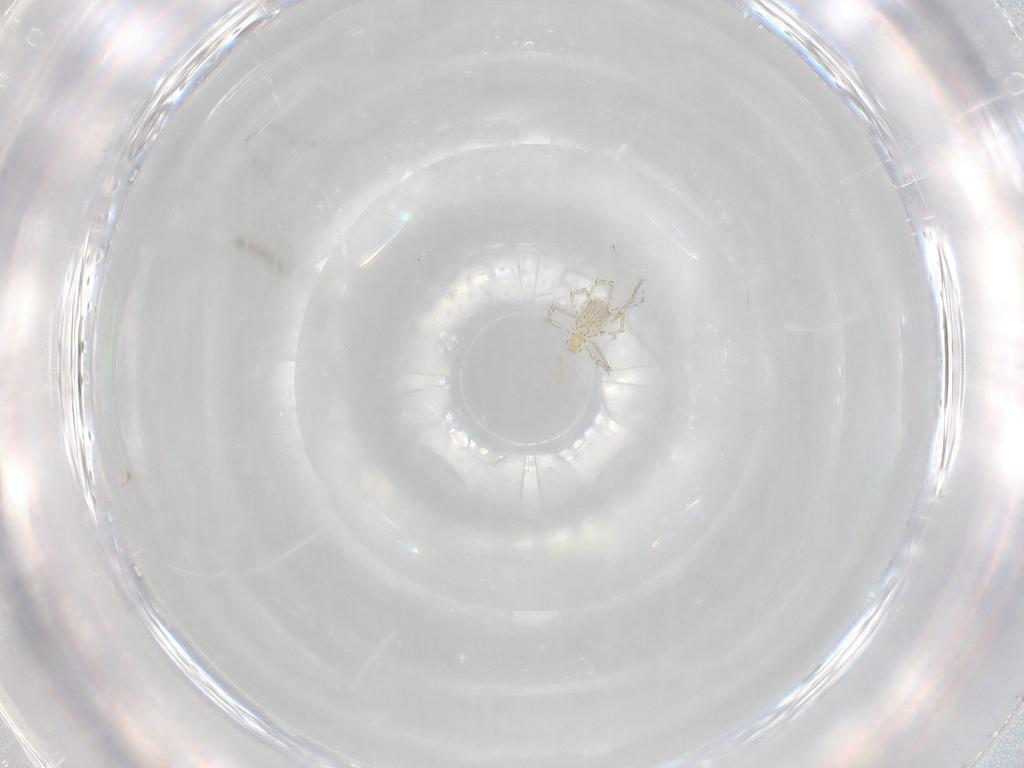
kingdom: Animalia
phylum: Arthropoda
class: Arachnida
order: Trombidiformes
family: Erythraeidae
